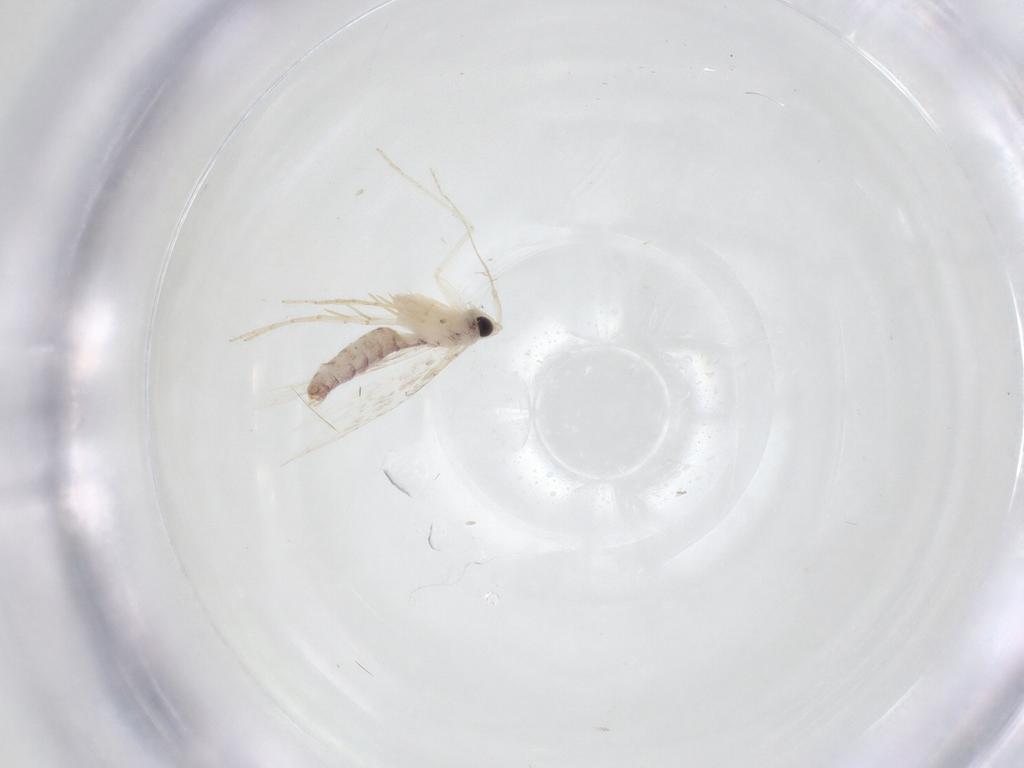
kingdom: Animalia
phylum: Arthropoda
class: Insecta
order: Lepidoptera
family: Tineidae
